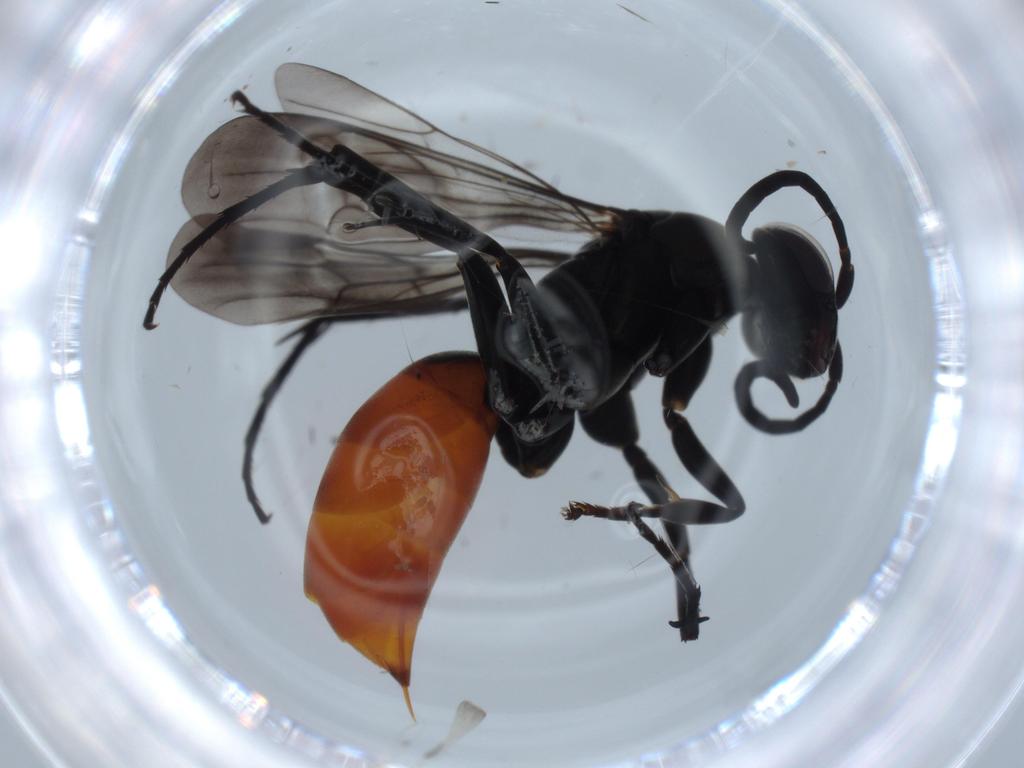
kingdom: Animalia
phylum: Arthropoda
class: Insecta
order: Hymenoptera
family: Pompilidae
